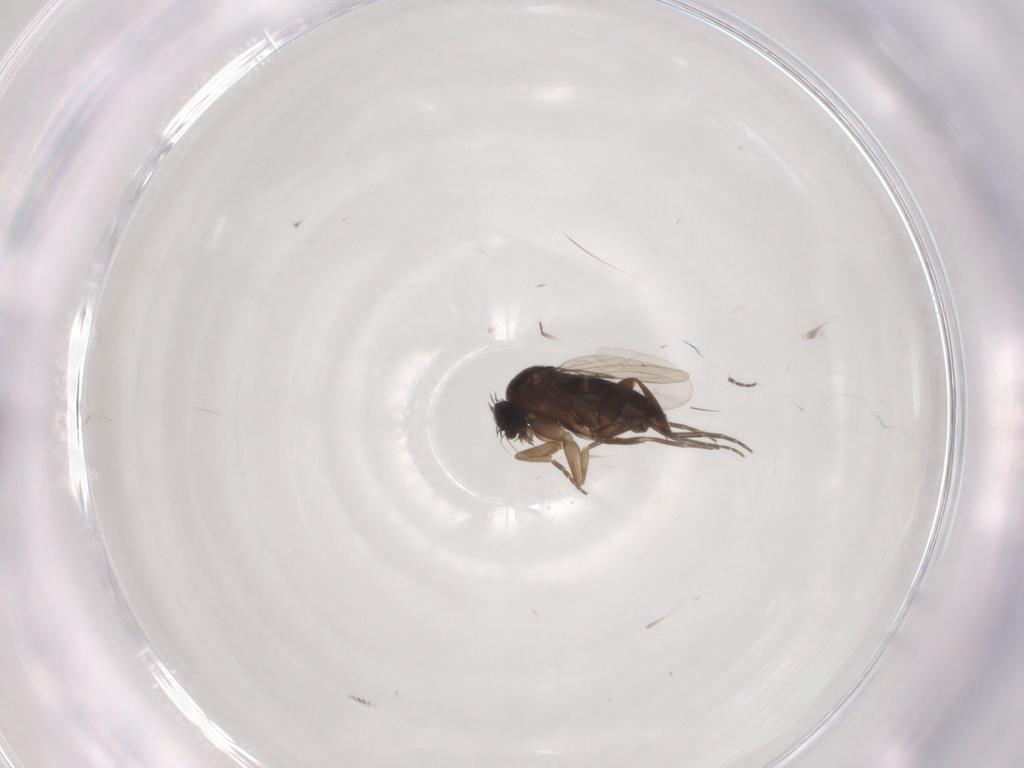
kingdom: Animalia
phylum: Arthropoda
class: Insecta
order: Diptera
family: Phoridae
